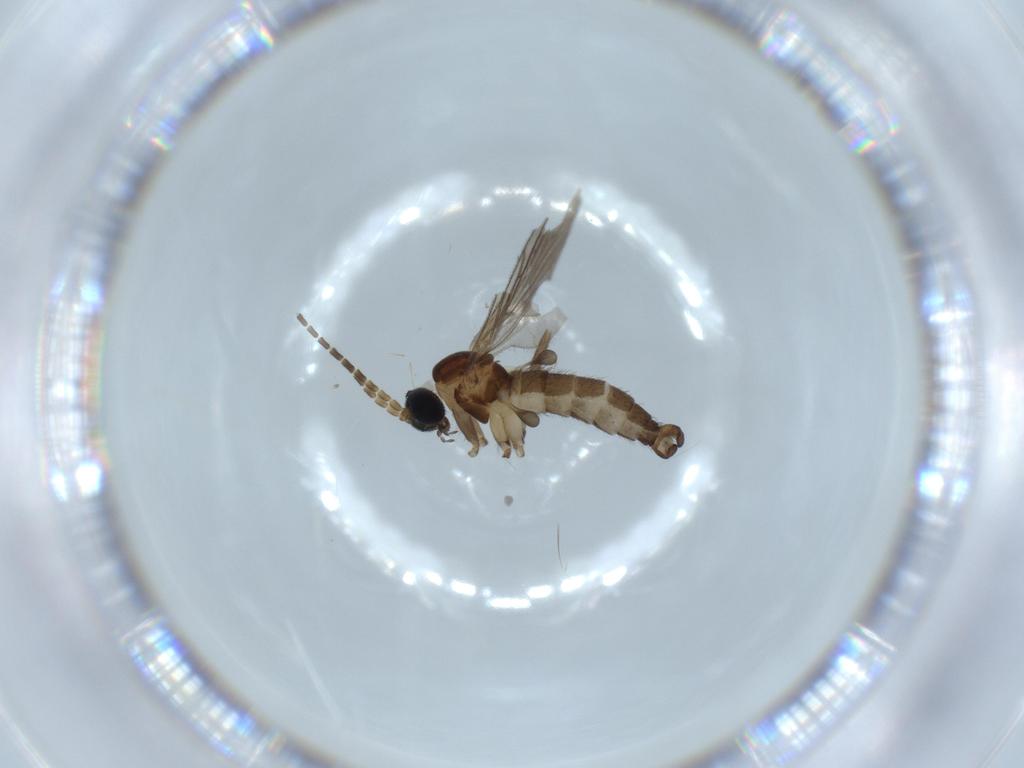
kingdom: Animalia
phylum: Arthropoda
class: Insecta
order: Diptera
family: Sciaridae
